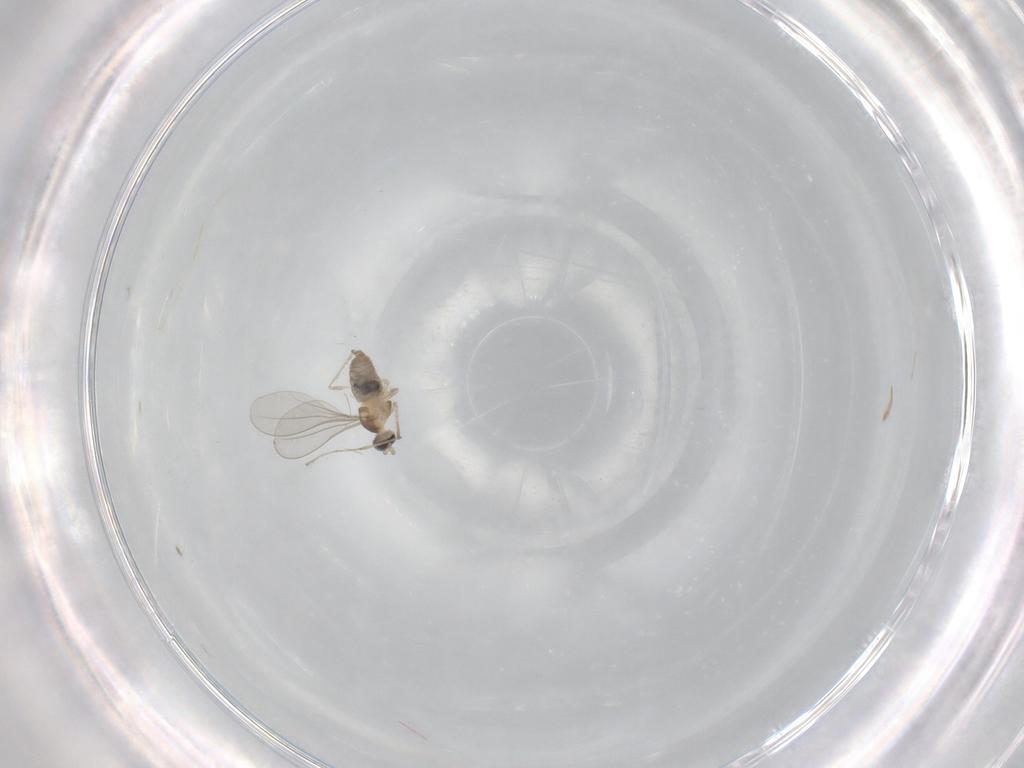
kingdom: Animalia
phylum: Arthropoda
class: Insecta
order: Diptera
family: Cecidomyiidae
